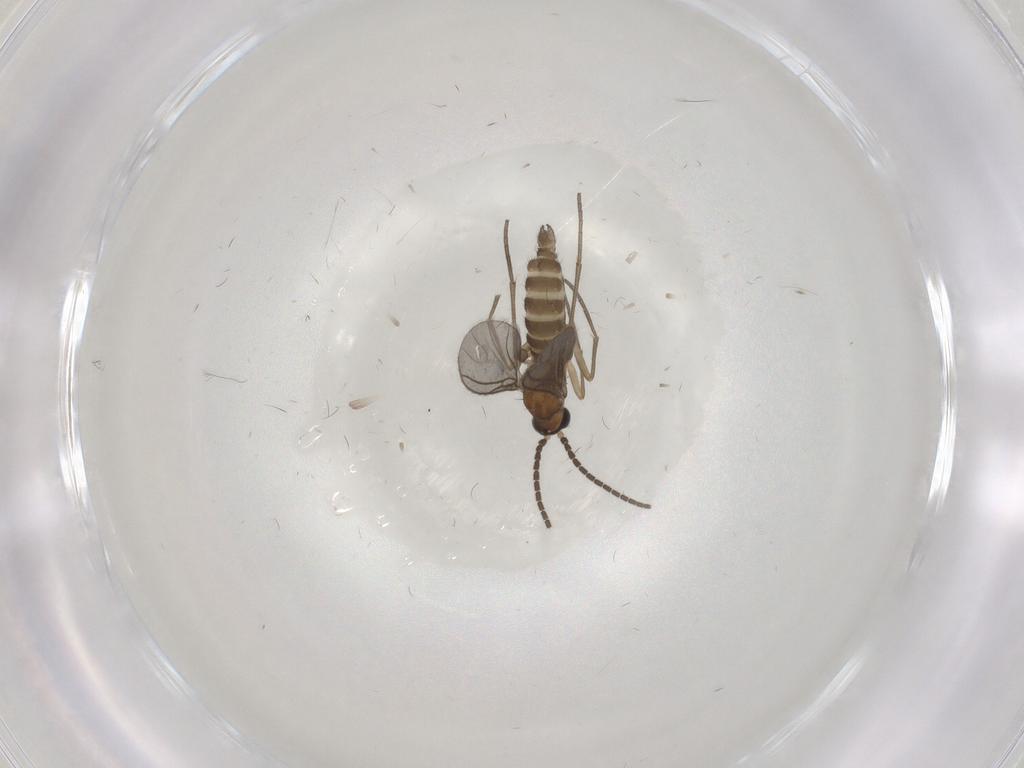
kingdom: Animalia
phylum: Arthropoda
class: Insecta
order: Diptera
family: Sciaridae
